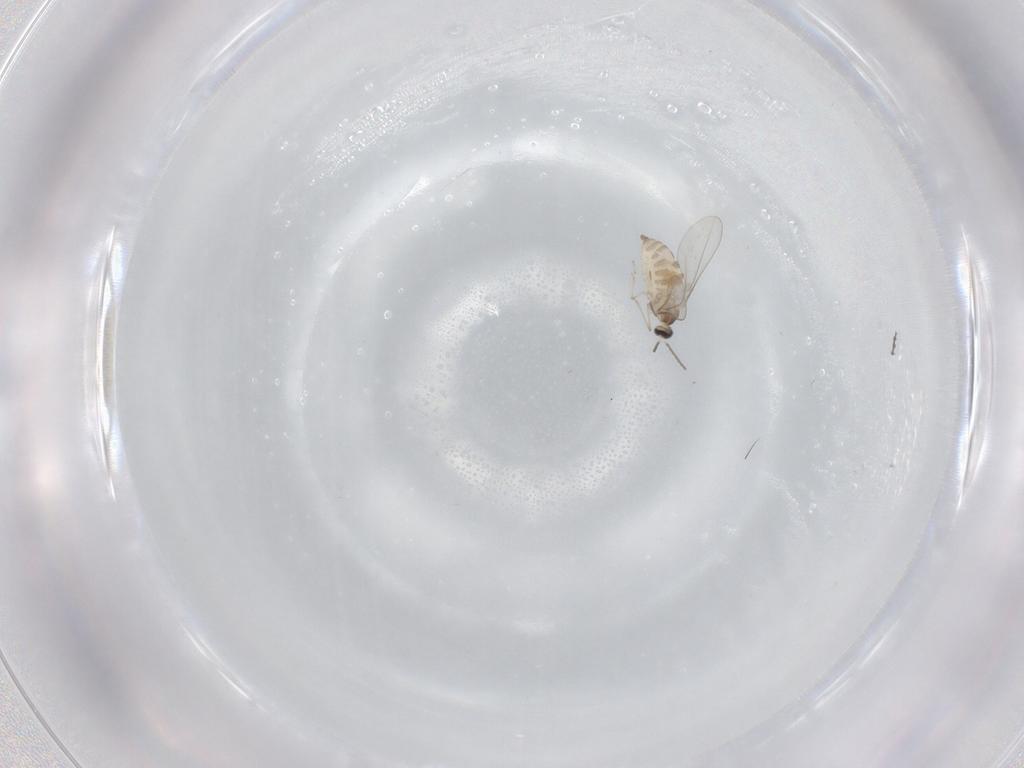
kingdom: Animalia
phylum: Arthropoda
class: Insecta
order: Diptera
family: Cecidomyiidae
